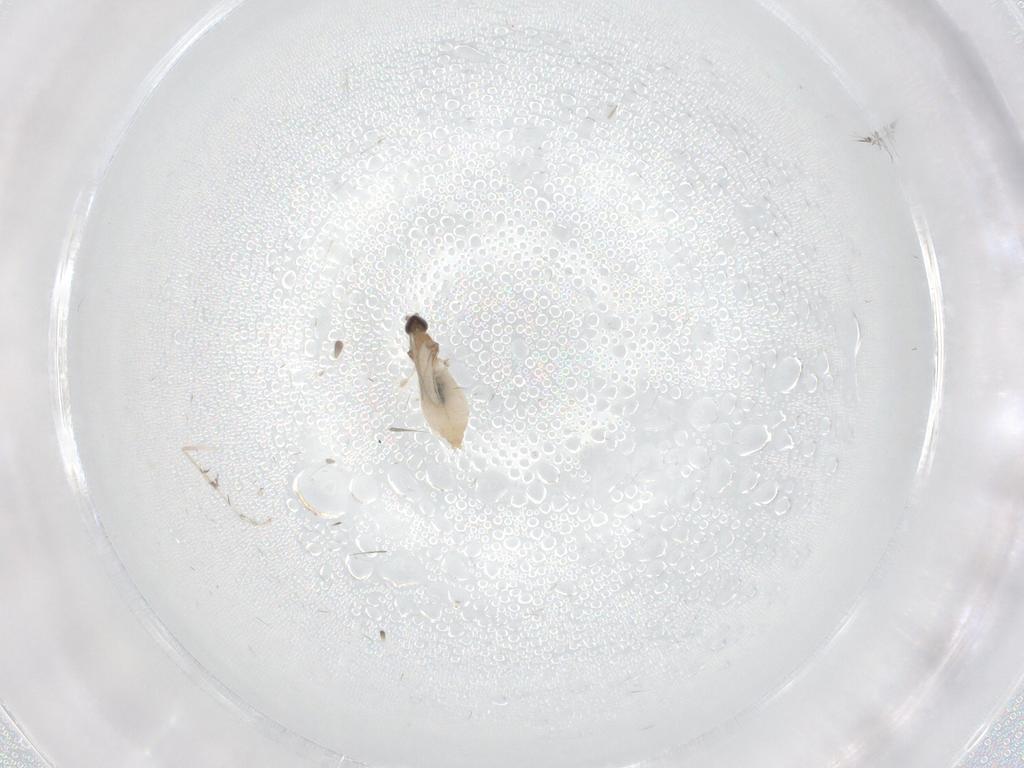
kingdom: Animalia
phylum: Arthropoda
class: Insecta
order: Diptera
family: Cecidomyiidae
